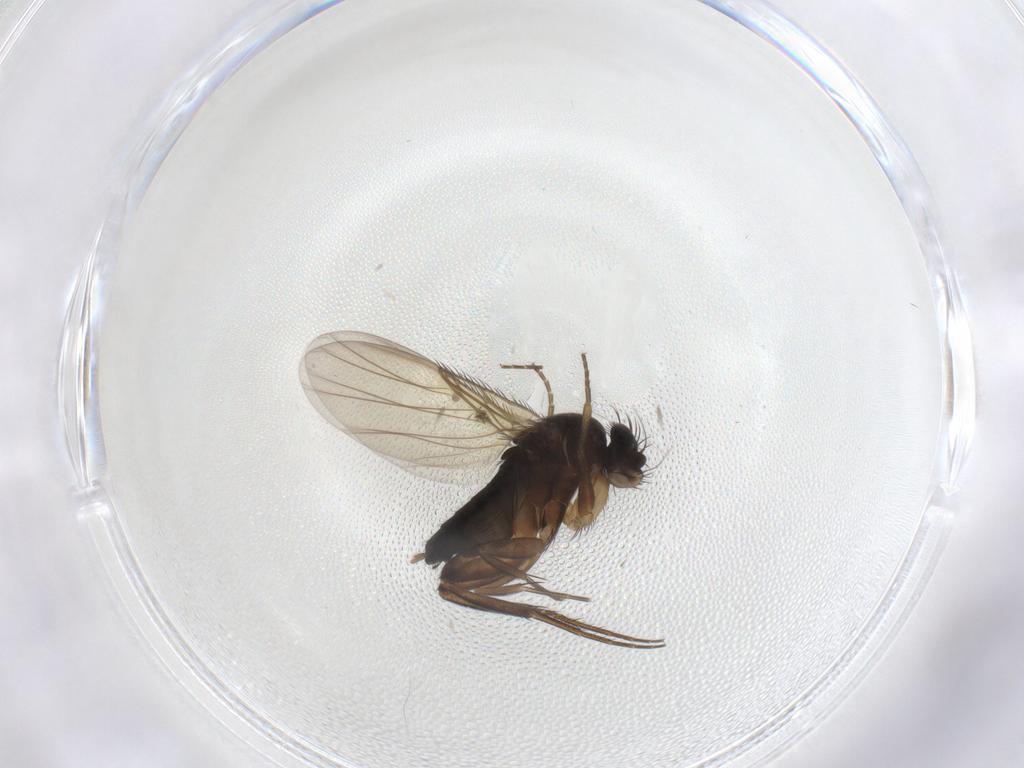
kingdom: Animalia
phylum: Arthropoda
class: Insecta
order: Diptera
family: Phoridae
